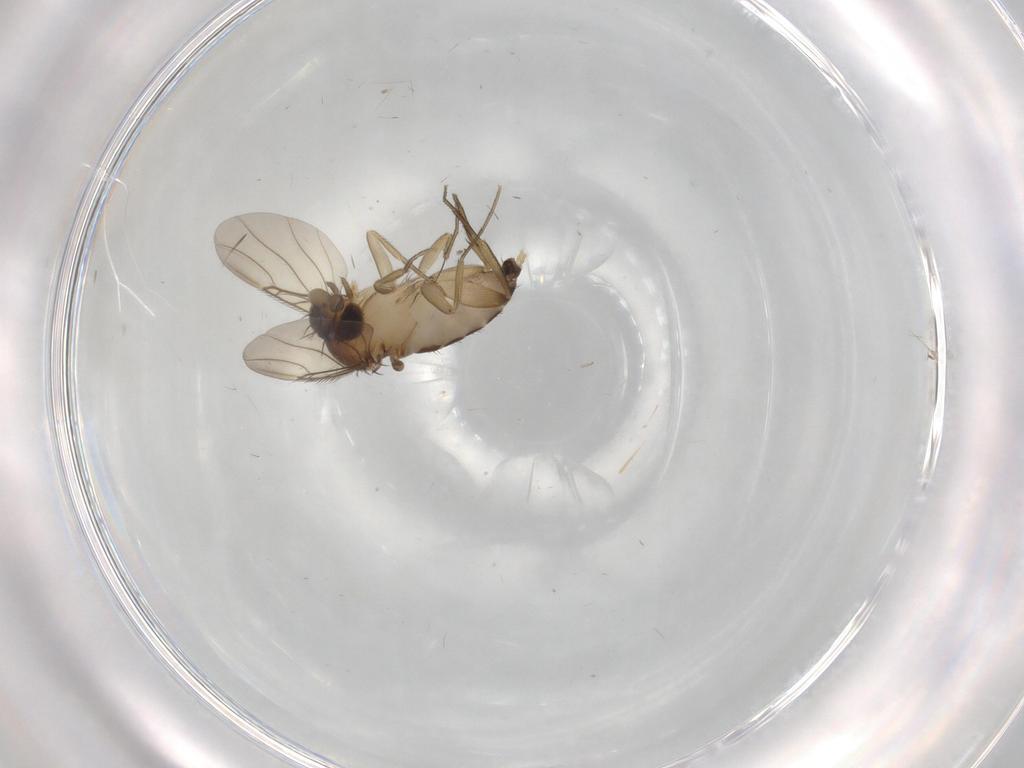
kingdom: Animalia
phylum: Arthropoda
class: Insecta
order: Diptera
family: Phoridae
